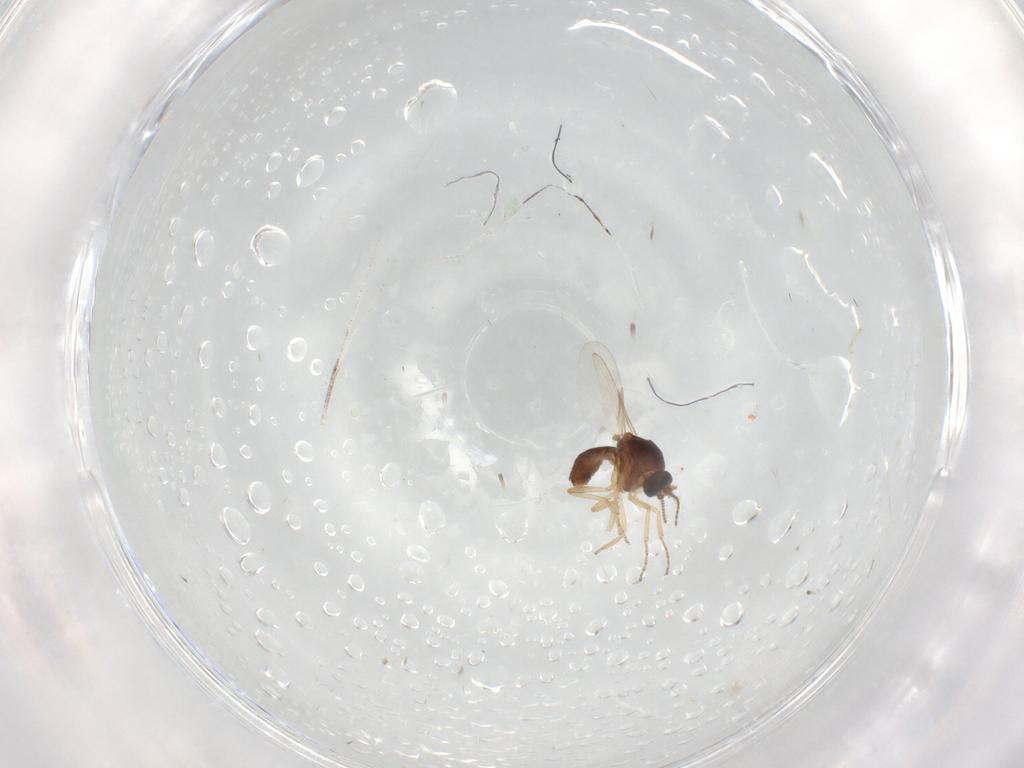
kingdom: Animalia
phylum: Arthropoda
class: Insecta
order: Diptera
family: Ceratopogonidae
